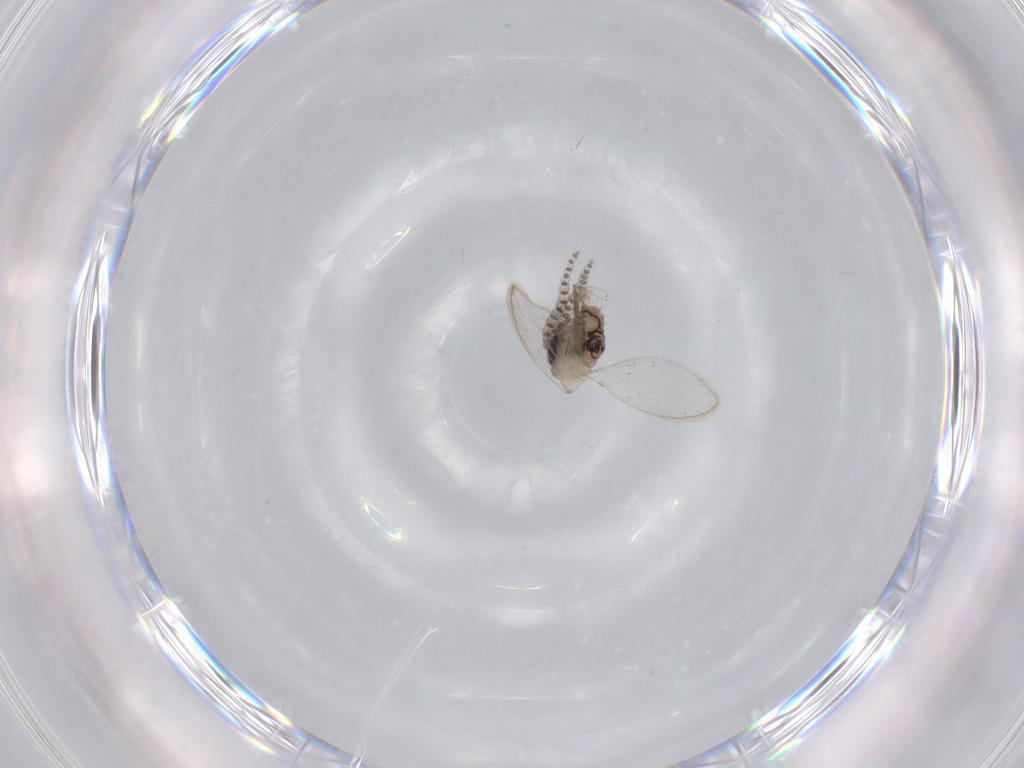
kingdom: Animalia
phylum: Arthropoda
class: Insecta
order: Diptera
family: Psychodidae
